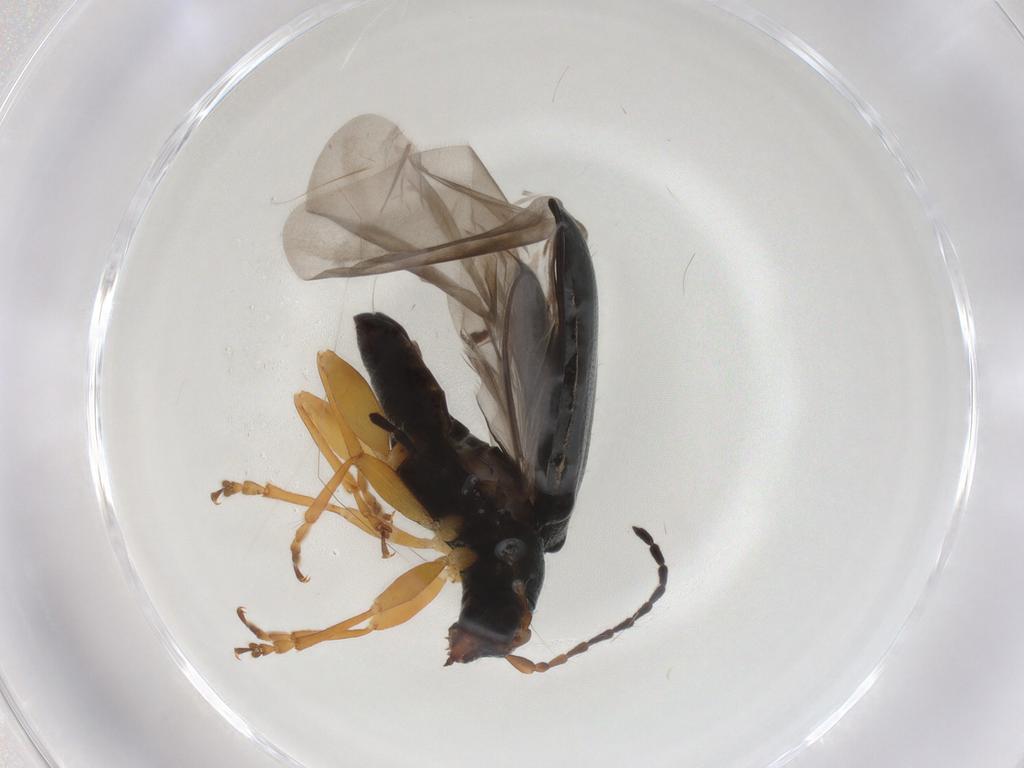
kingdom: Animalia
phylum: Arthropoda
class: Insecta
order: Coleoptera
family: Chrysomelidae
